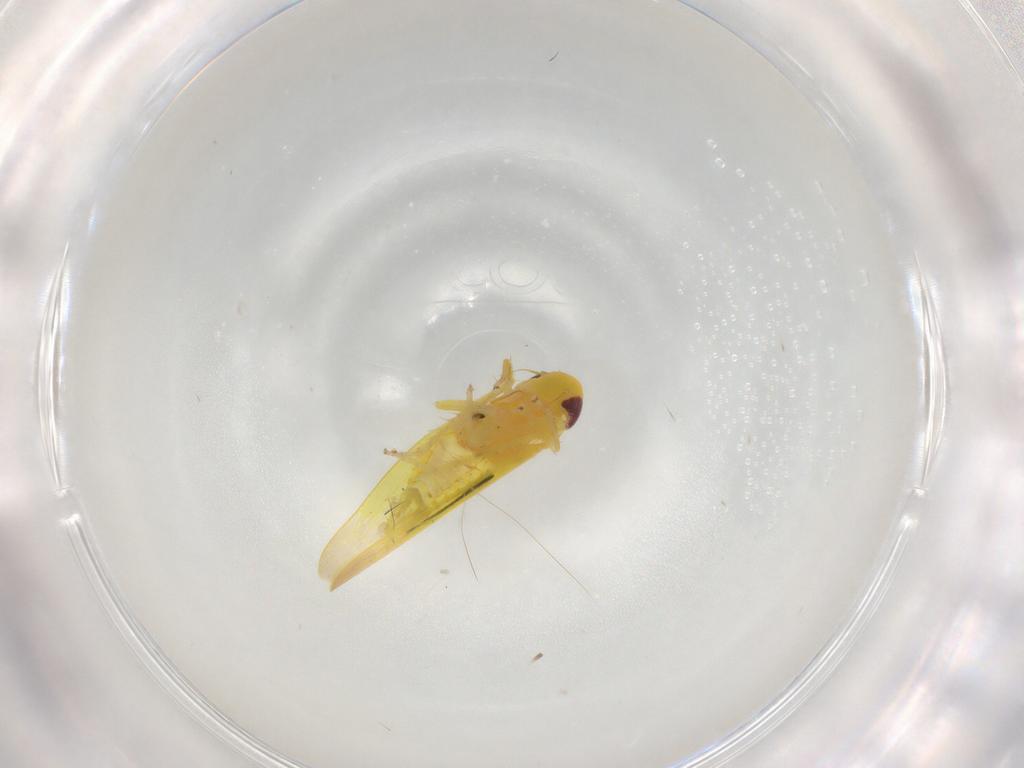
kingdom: Animalia
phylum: Arthropoda
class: Insecta
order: Hemiptera
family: Cicadellidae
